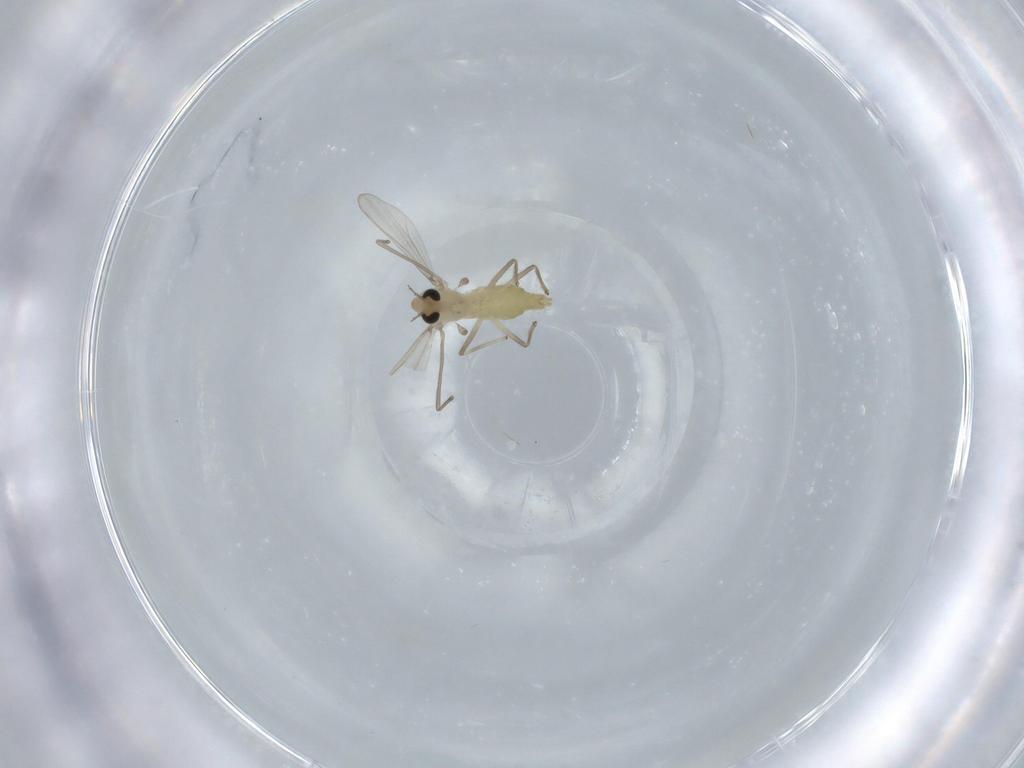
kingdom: Animalia
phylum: Arthropoda
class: Insecta
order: Diptera
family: Chironomidae
